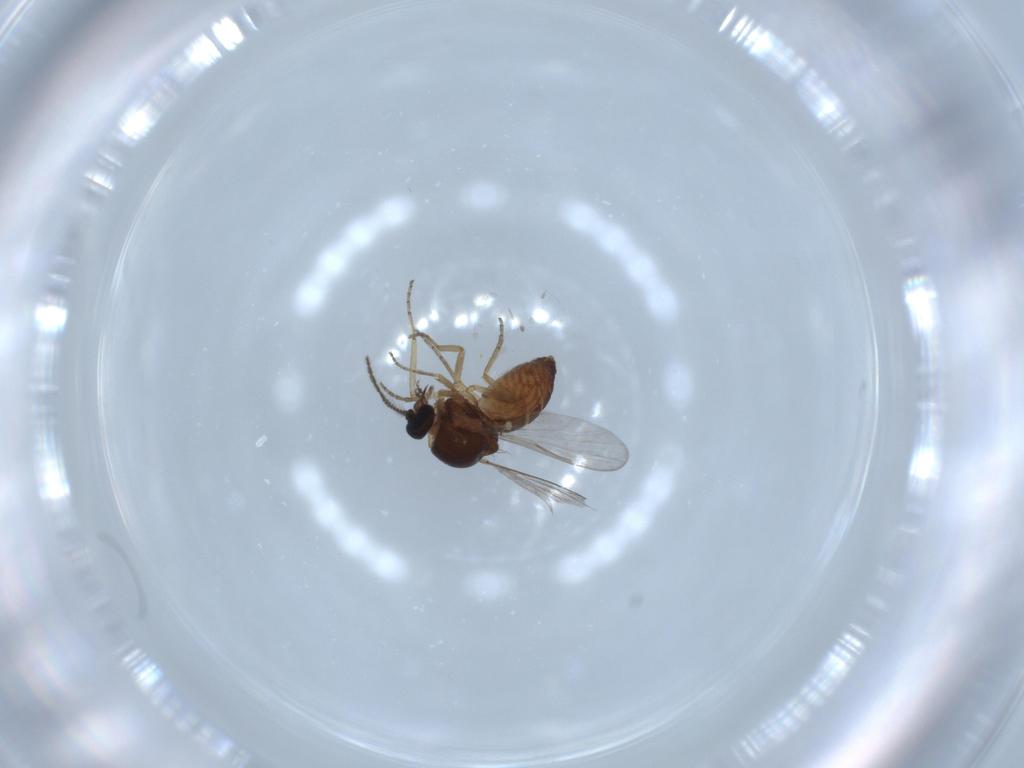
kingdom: Animalia
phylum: Arthropoda
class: Insecta
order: Diptera
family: Ceratopogonidae
